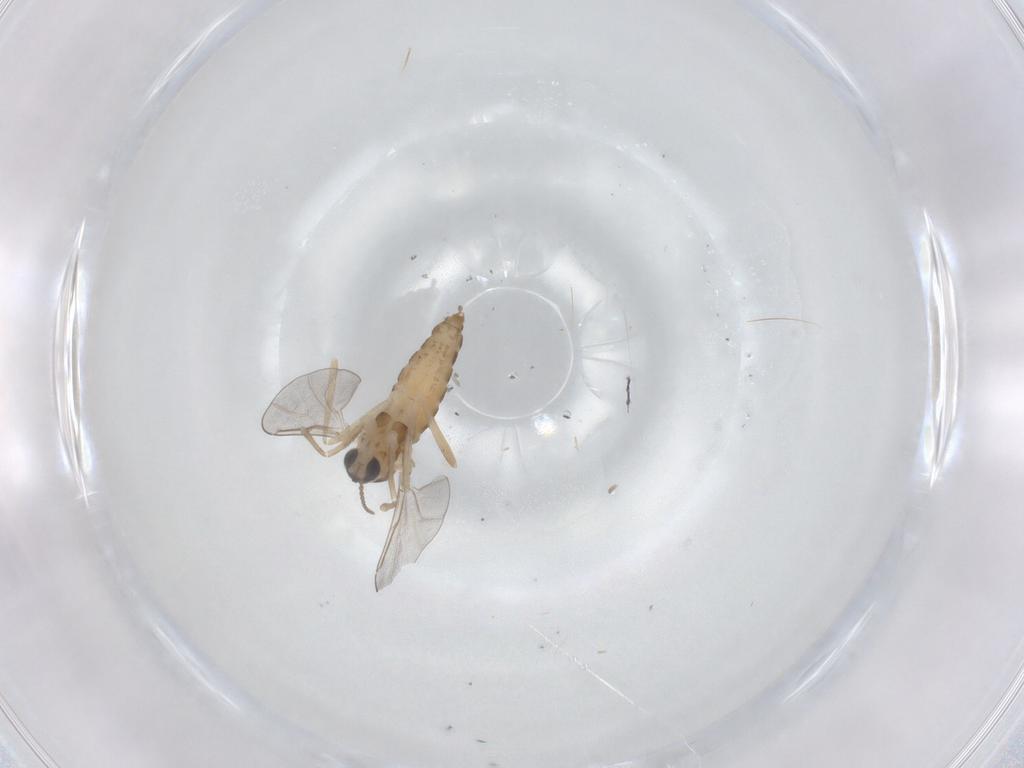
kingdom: Animalia
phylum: Arthropoda
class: Insecta
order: Diptera
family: Cecidomyiidae
